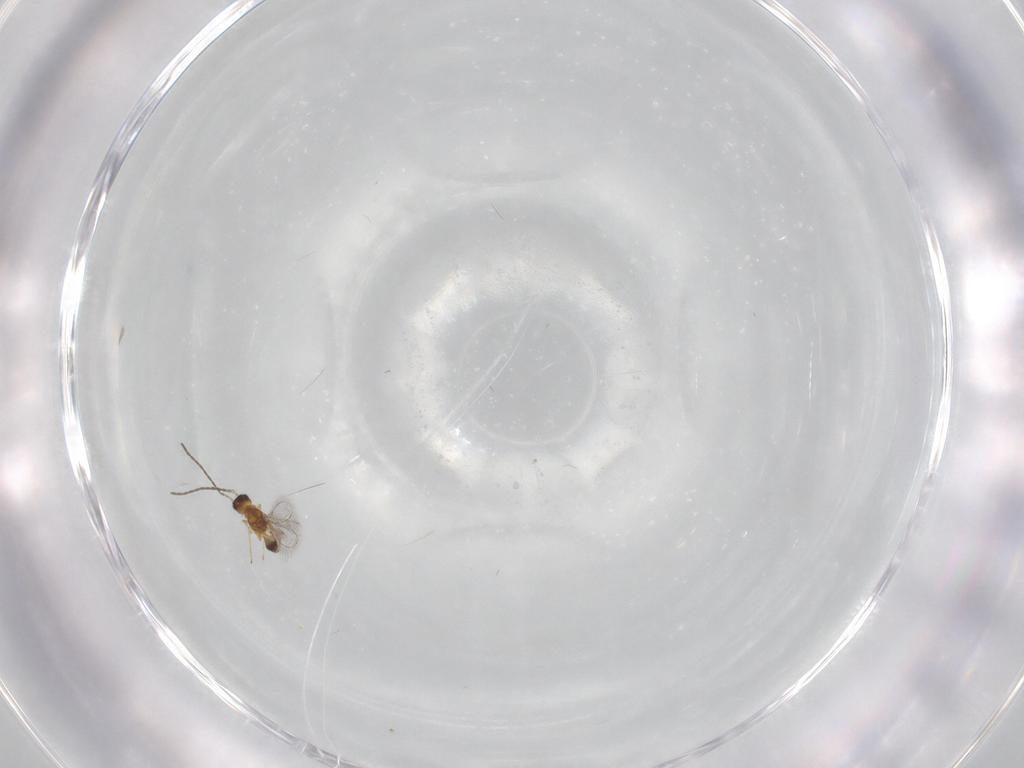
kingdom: Animalia
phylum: Arthropoda
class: Insecta
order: Hymenoptera
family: Mymaridae
